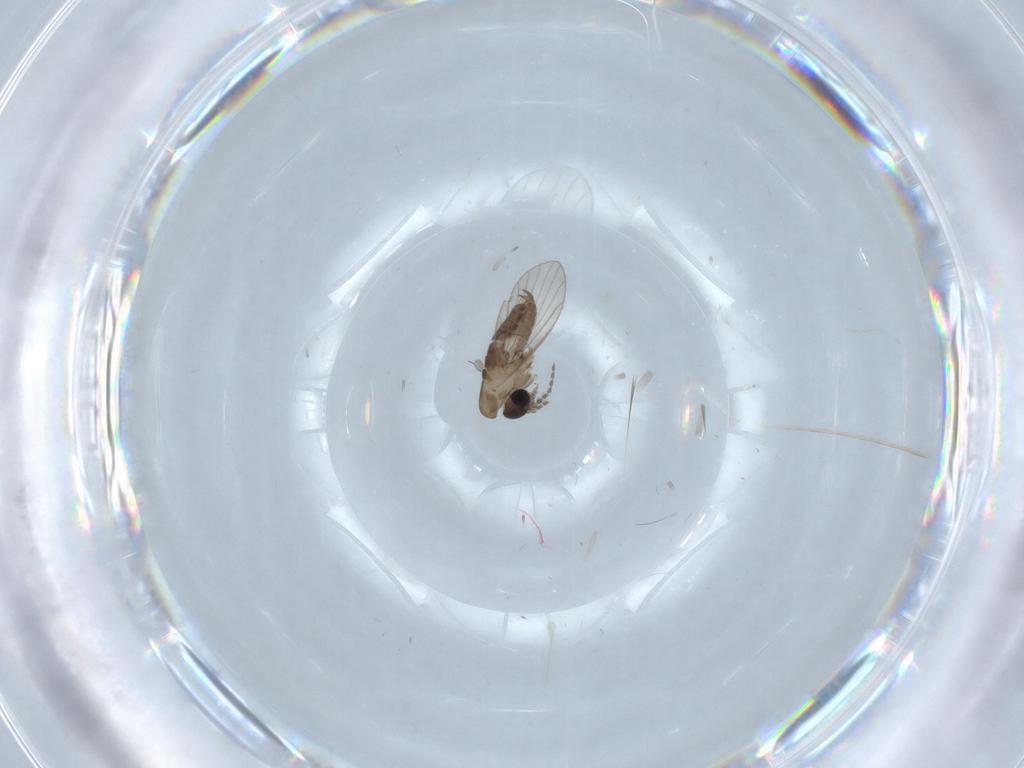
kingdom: Animalia
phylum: Arthropoda
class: Insecta
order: Diptera
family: Psychodidae
